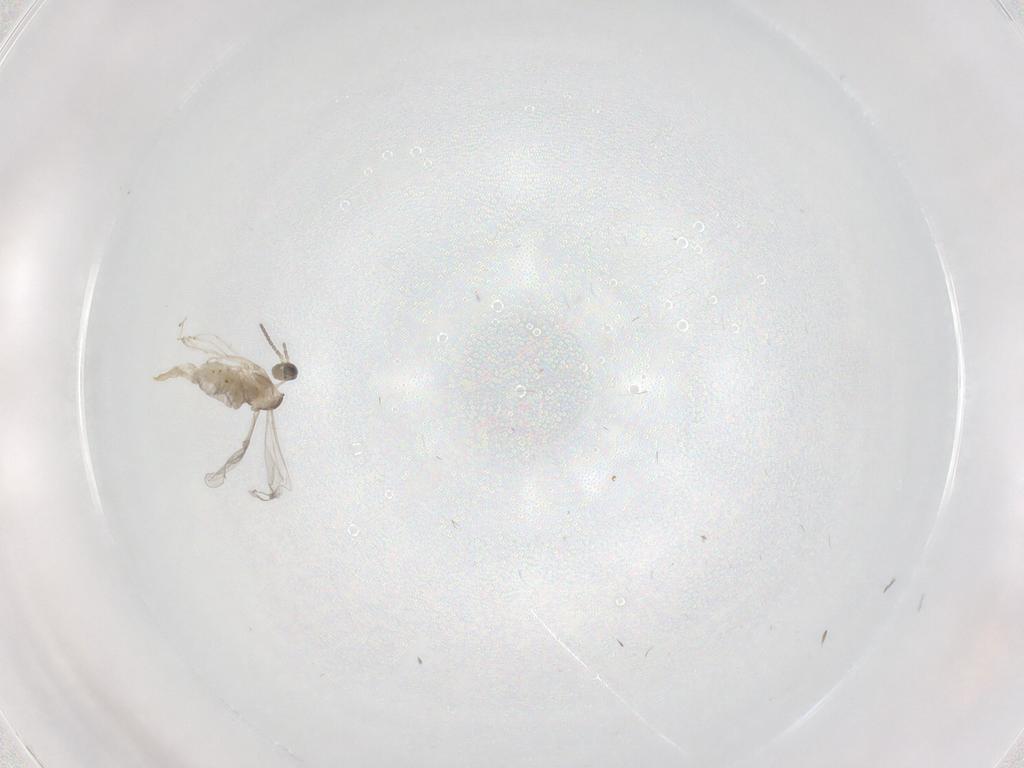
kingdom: Animalia
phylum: Arthropoda
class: Insecta
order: Diptera
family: Cecidomyiidae
